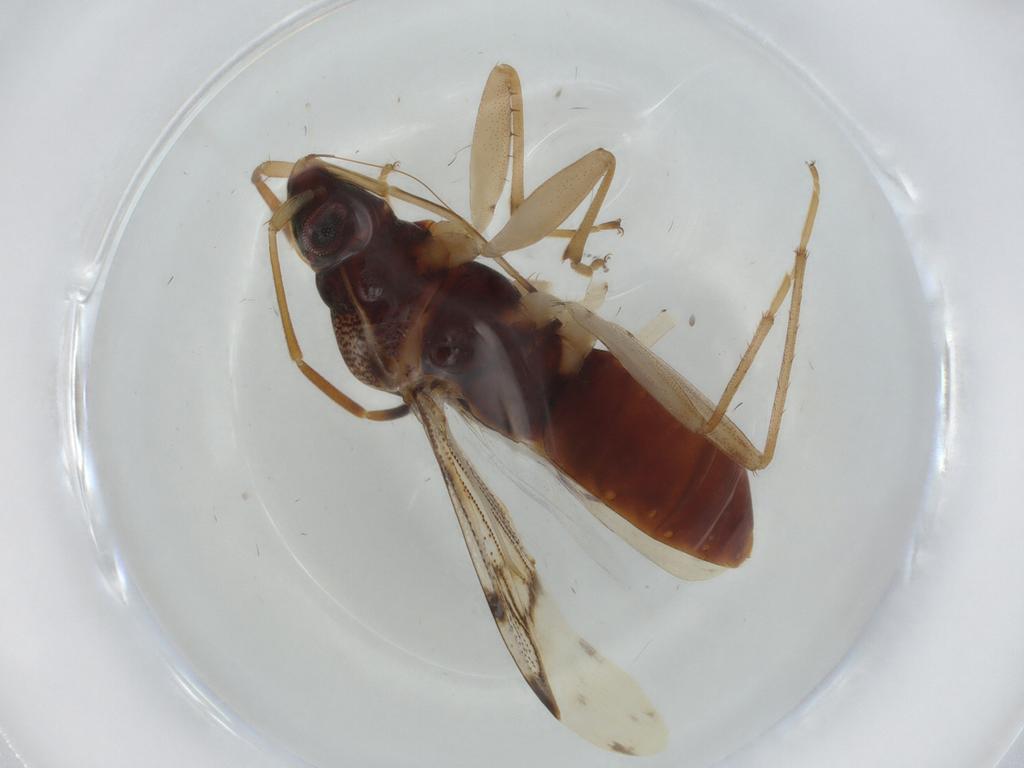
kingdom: Animalia
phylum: Arthropoda
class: Insecta
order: Hemiptera
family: Rhyparochromidae
